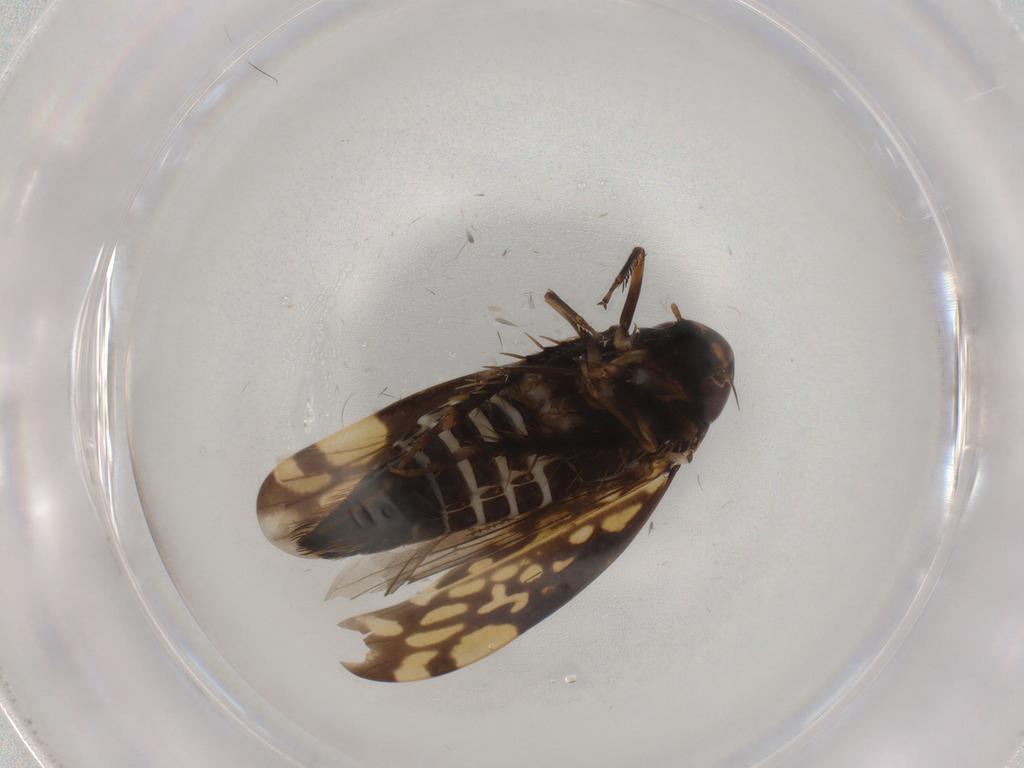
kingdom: Animalia
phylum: Arthropoda
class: Insecta
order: Hemiptera
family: Cicadellidae
